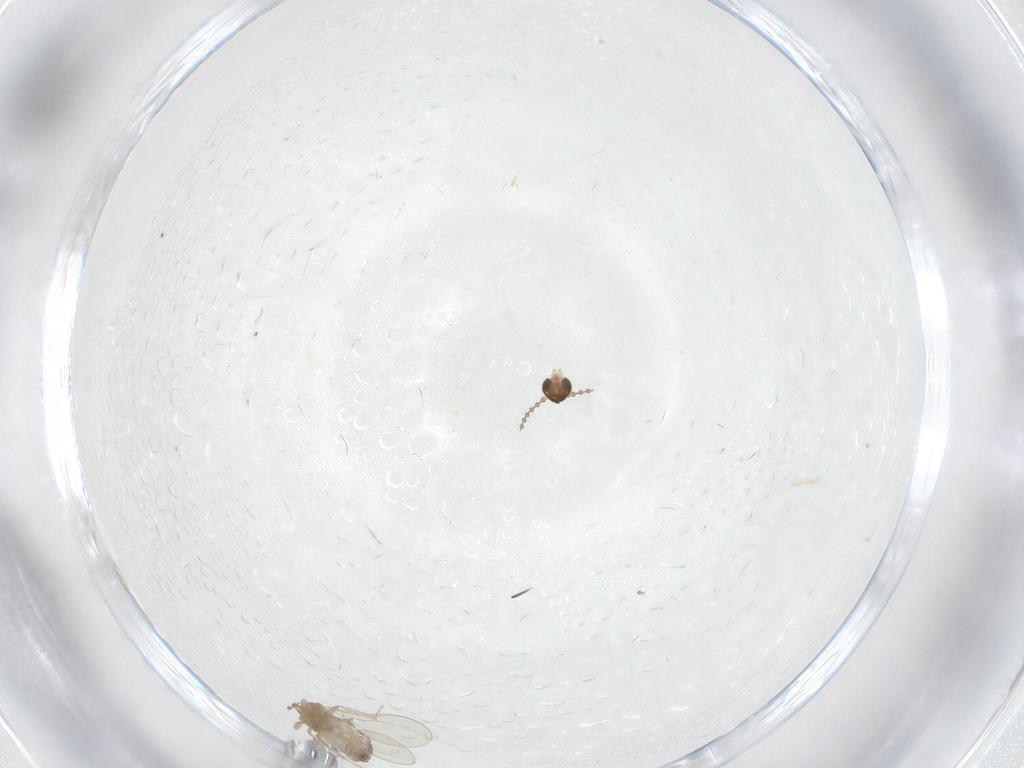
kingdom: Animalia
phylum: Arthropoda
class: Insecta
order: Diptera
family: Cecidomyiidae
